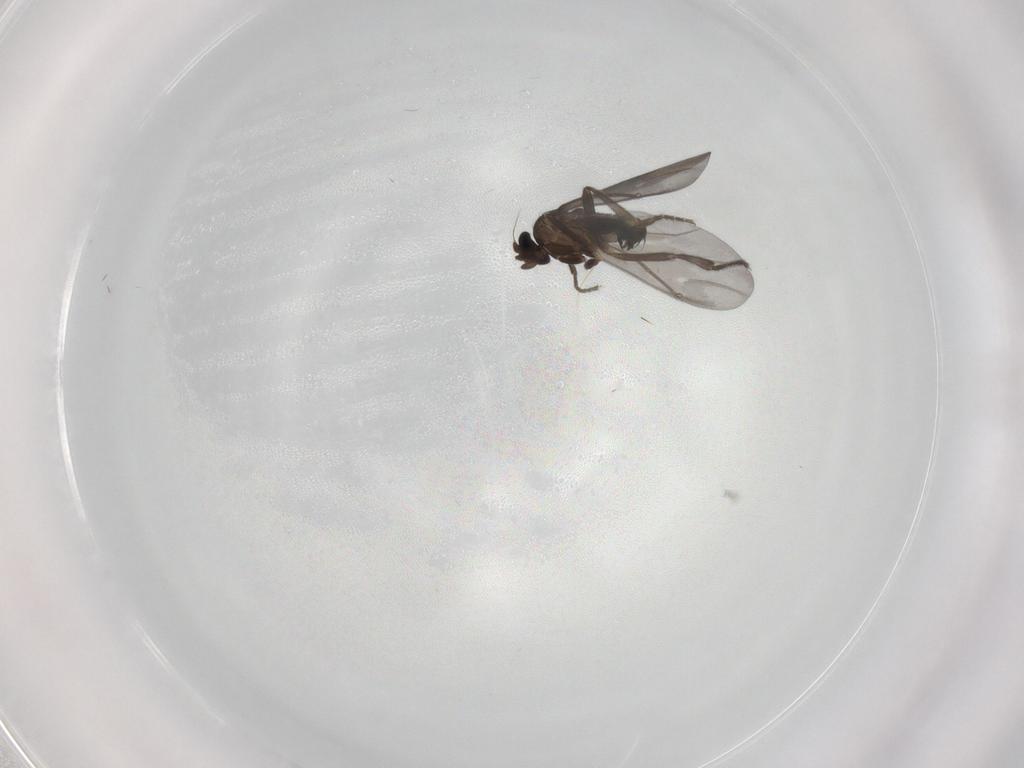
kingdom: Animalia
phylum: Arthropoda
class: Insecta
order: Diptera
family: Phoridae
